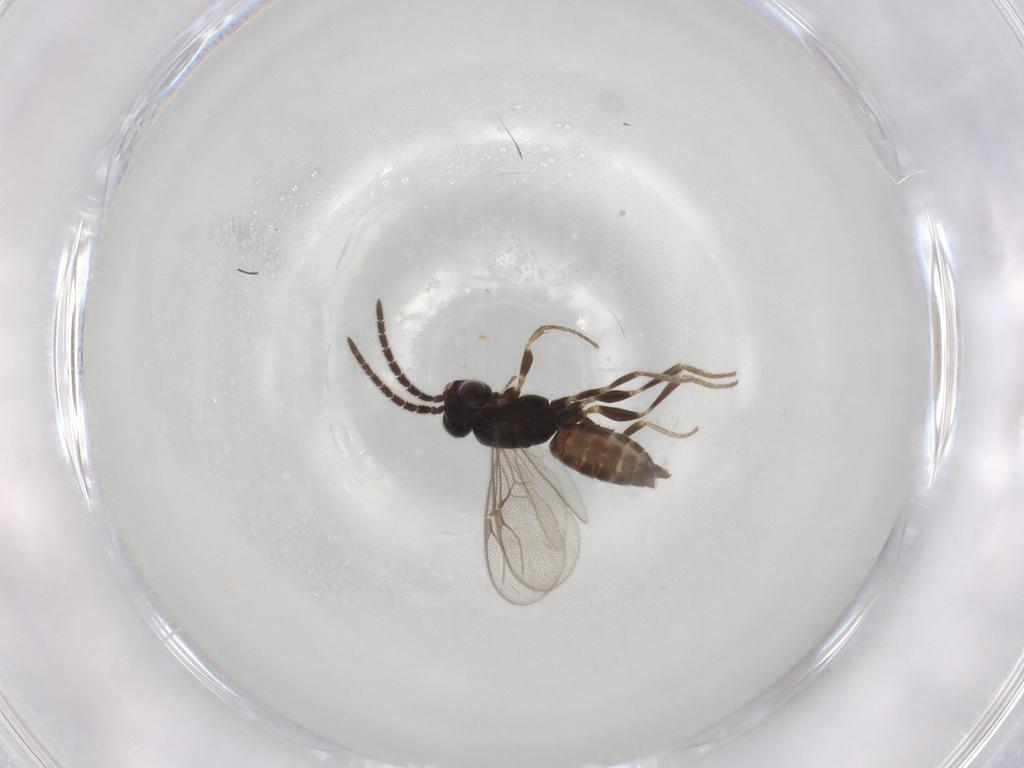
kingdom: Animalia
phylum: Arthropoda
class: Insecta
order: Hymenoptera
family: Dryinidae
